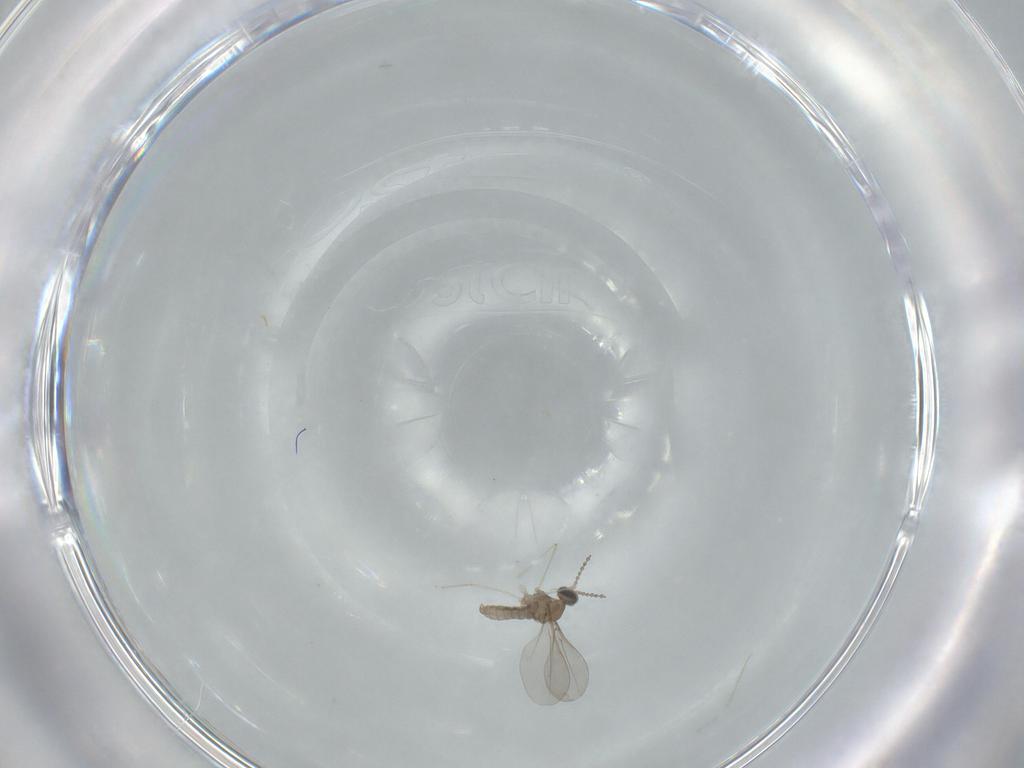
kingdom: Animalia
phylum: Arthropoda
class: Insecta
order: Diptera
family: Cecidomyiidae
